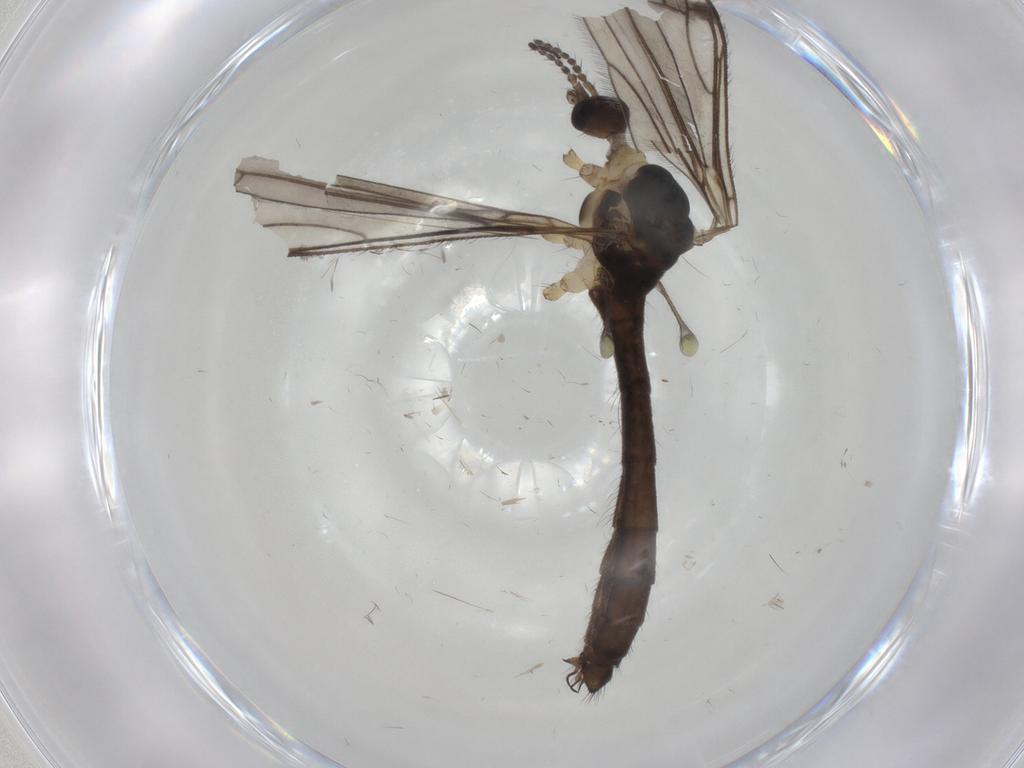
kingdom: Animalia
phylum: Arthropoda
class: Insecta
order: Diptera
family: Limoniidae
